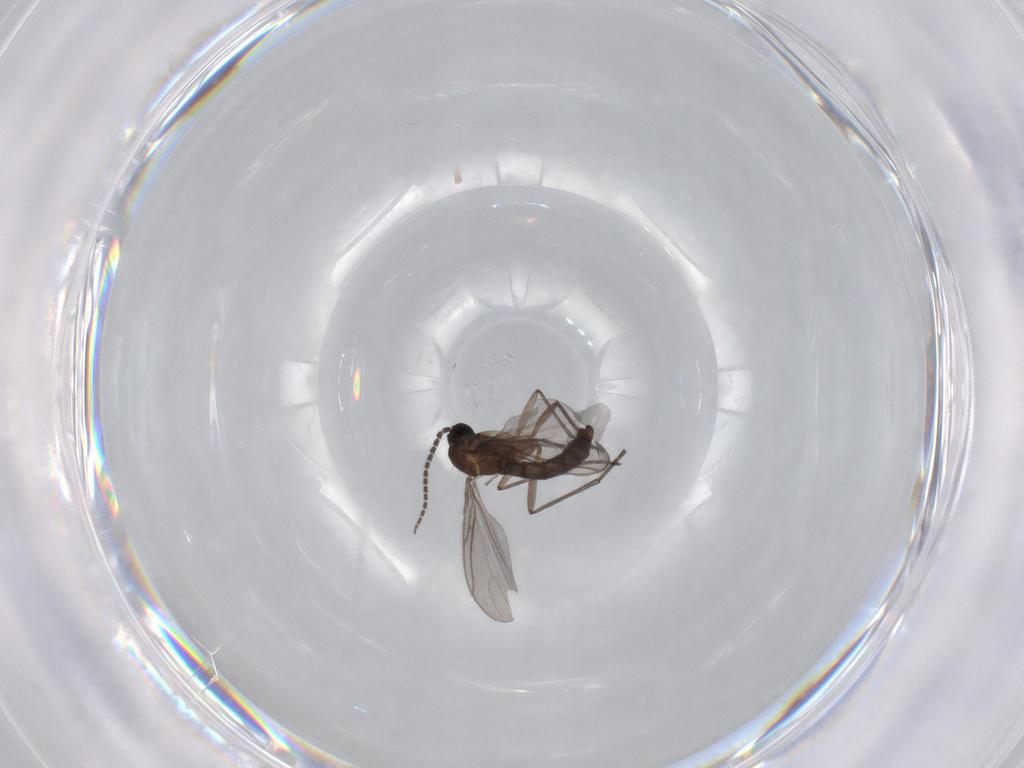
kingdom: Animalia
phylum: Arthropoda
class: Insecta
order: Diptera
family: Sciaridae
